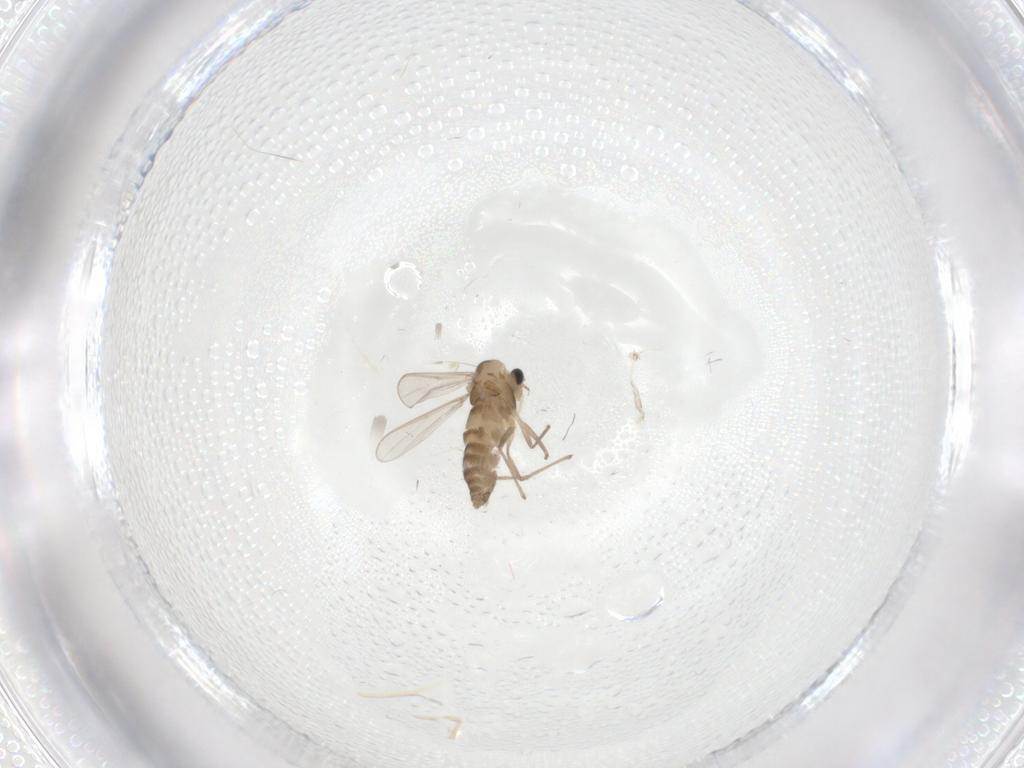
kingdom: Animalia
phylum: Arthropoda
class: Insecta
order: Diptera
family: Chironomidae
